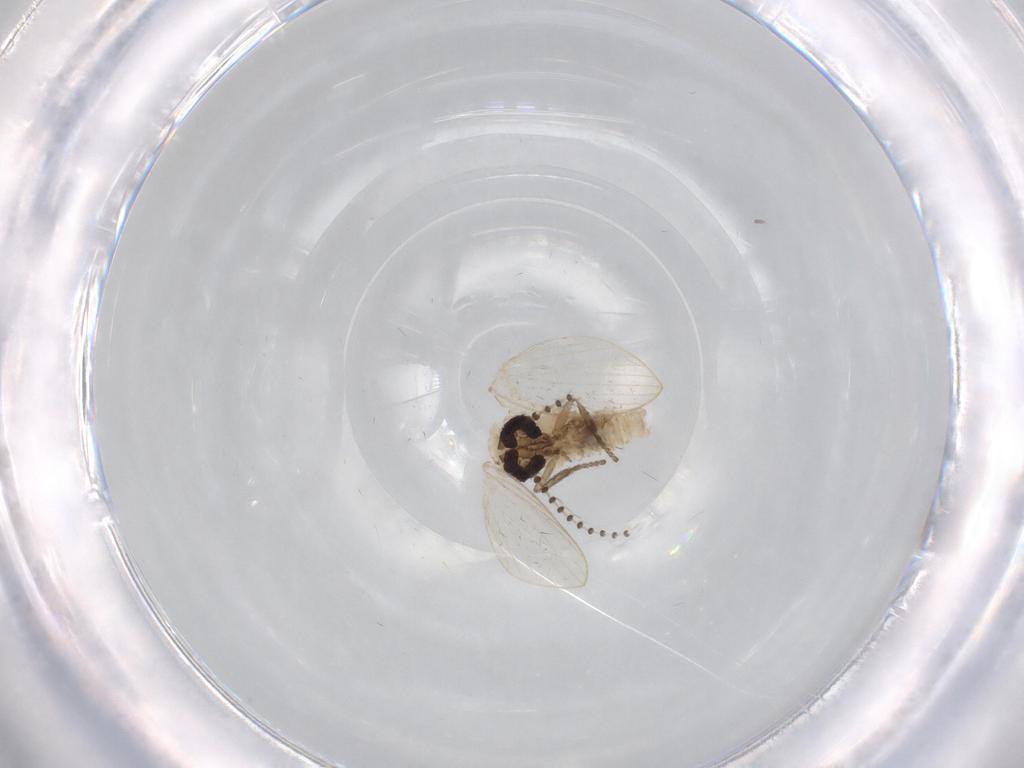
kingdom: Animalia
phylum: Arthropoda
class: Insecta
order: Diptera
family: Psychodidae
